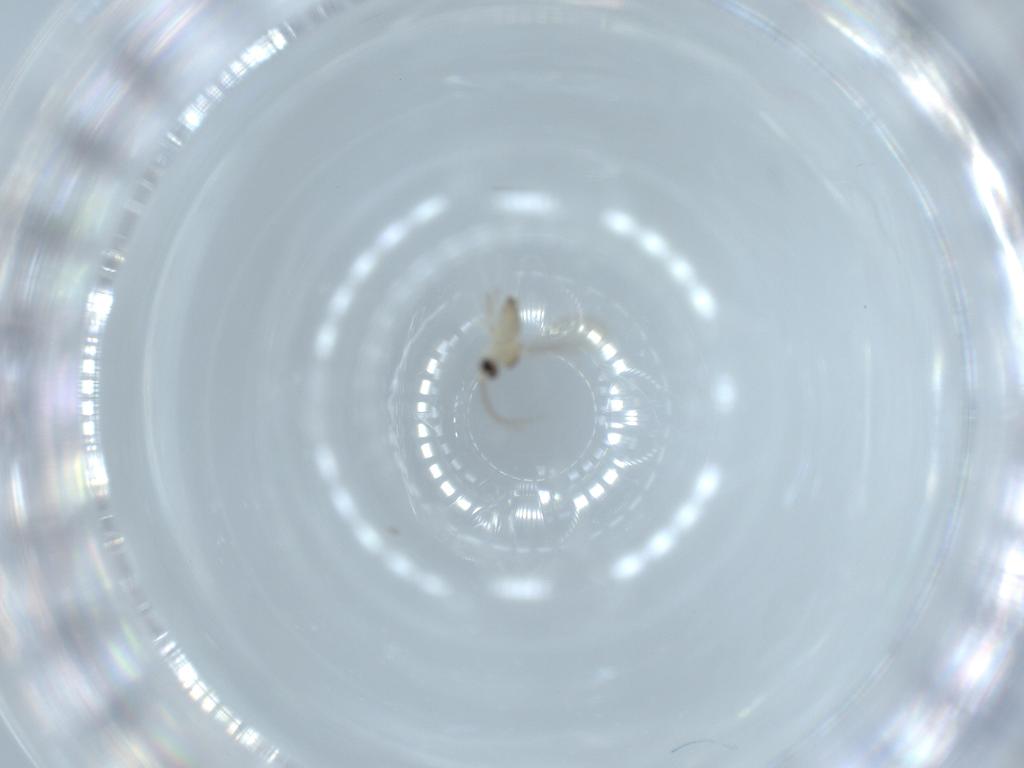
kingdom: Animalia
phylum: Arthropoda
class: Insecta
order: Diptera
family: Cecidomyiidae
